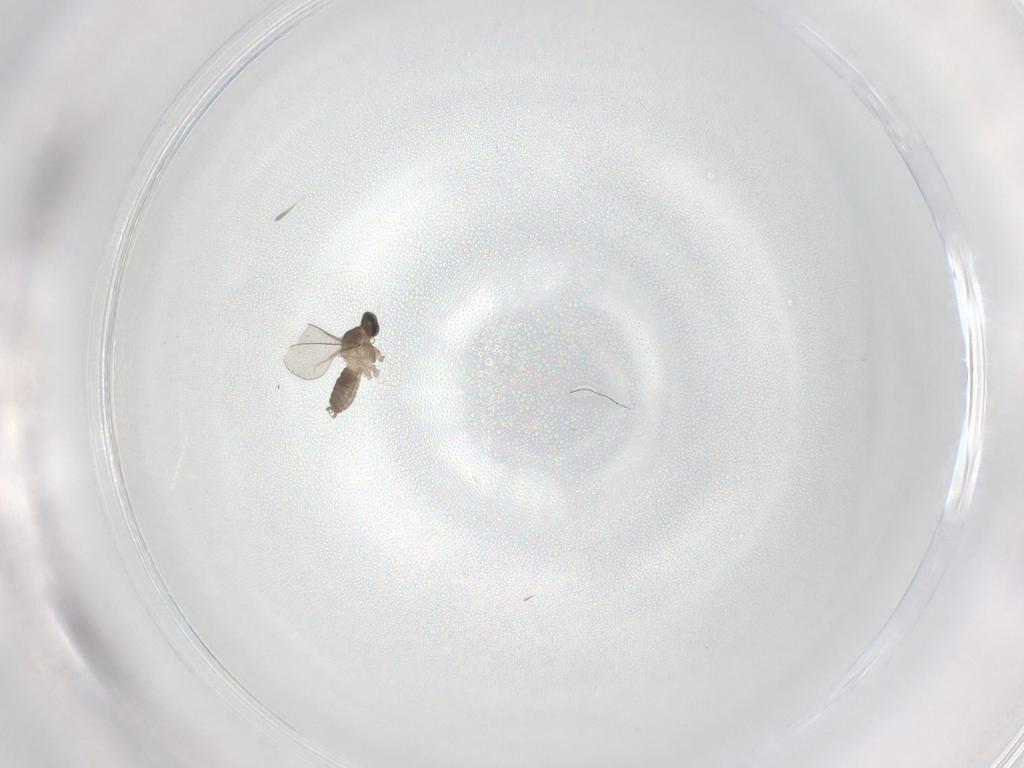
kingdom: Animalia
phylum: Arthropoda
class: Insecta
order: Diptera
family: Cecidomyiidae
